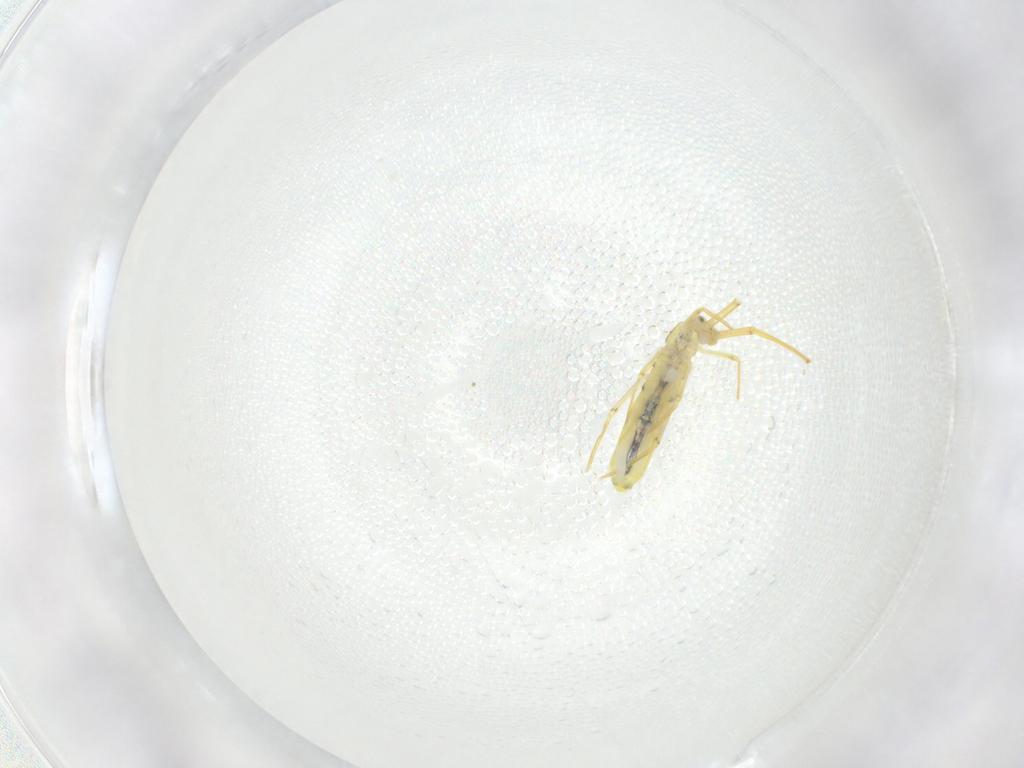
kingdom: Animalia
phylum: Arthropoda
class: Collembola
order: Entomobryomorpha
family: Entomobryidae
